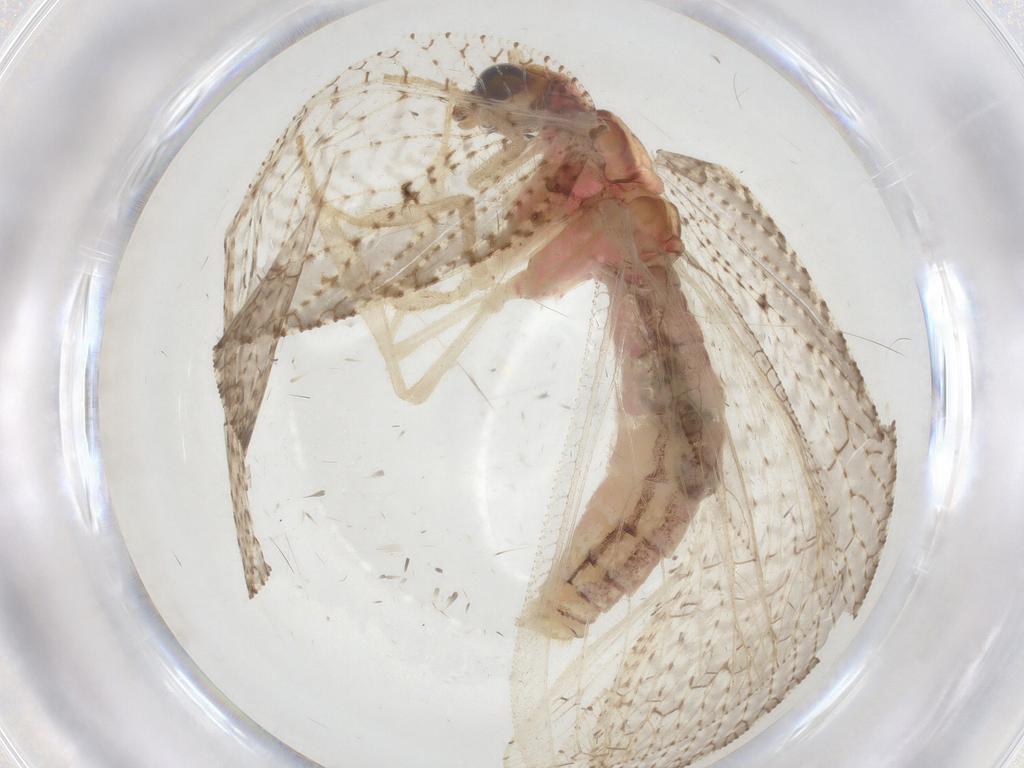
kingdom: Animalia
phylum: Arthropoda
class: Insecta
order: Neuroptera
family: Hemerobiidae
